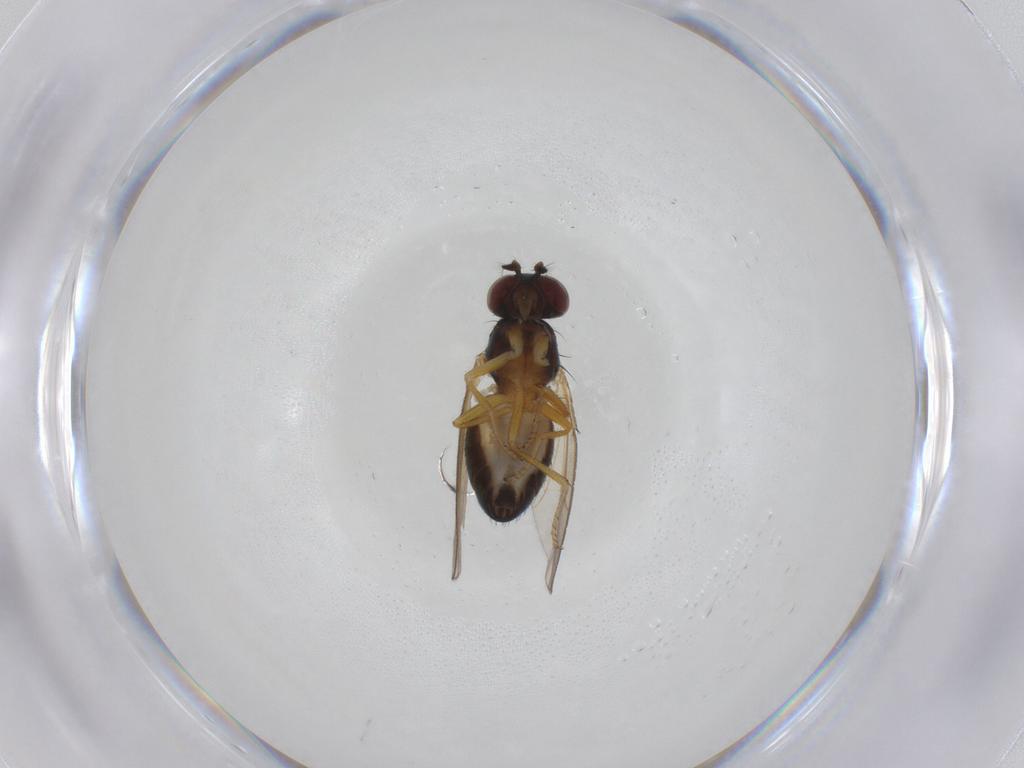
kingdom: Animalia
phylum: Arthropoda
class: Insecta
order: Diptera
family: Muscidae
